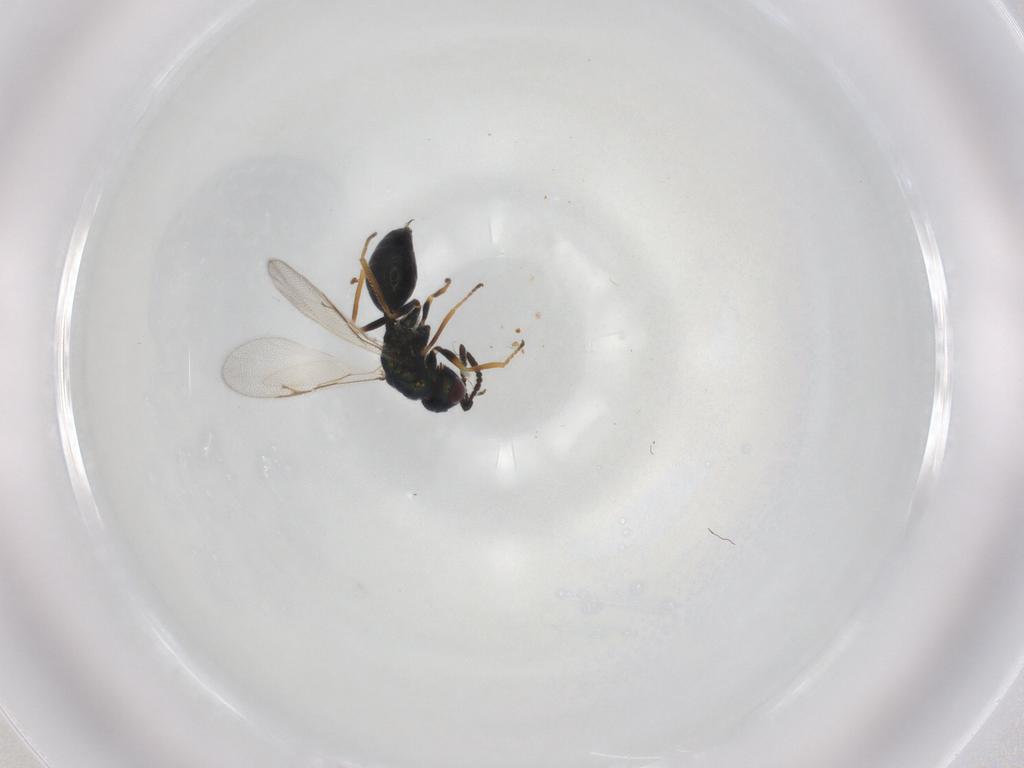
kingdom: Animalia
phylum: Arthropoda
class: Insecta
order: Hymenoptera
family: Chalcidoidea_incertae_sedis
